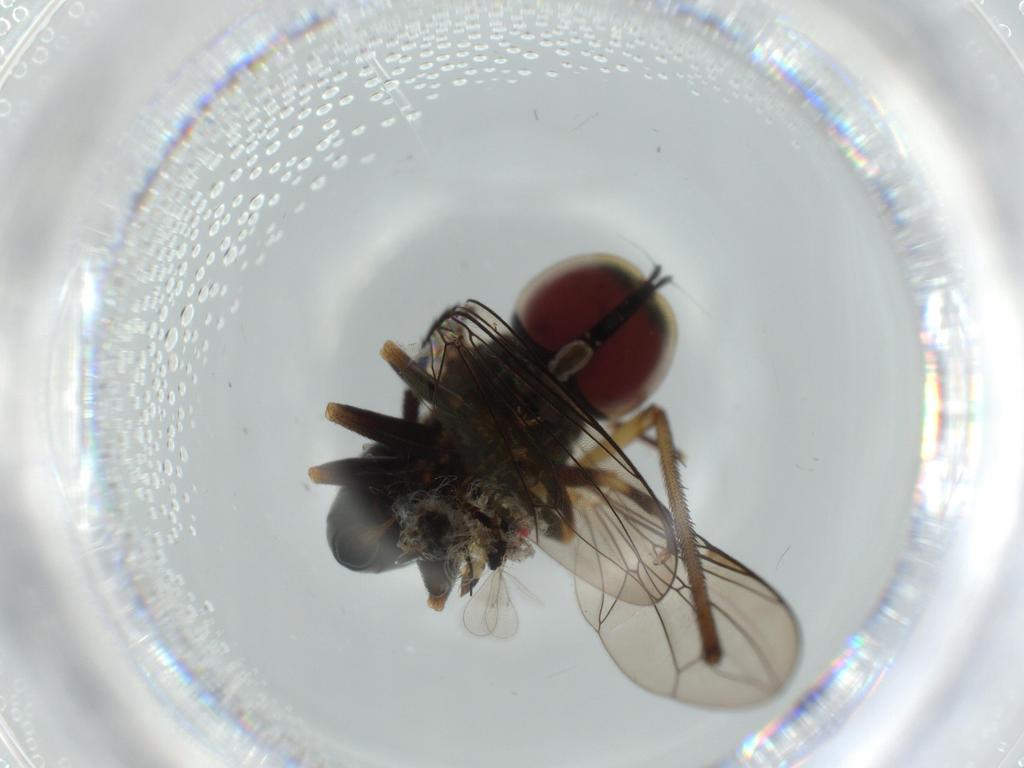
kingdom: Animalia
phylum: Arthropoda
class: Insecta
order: Diptera
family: Dolichopodidae
